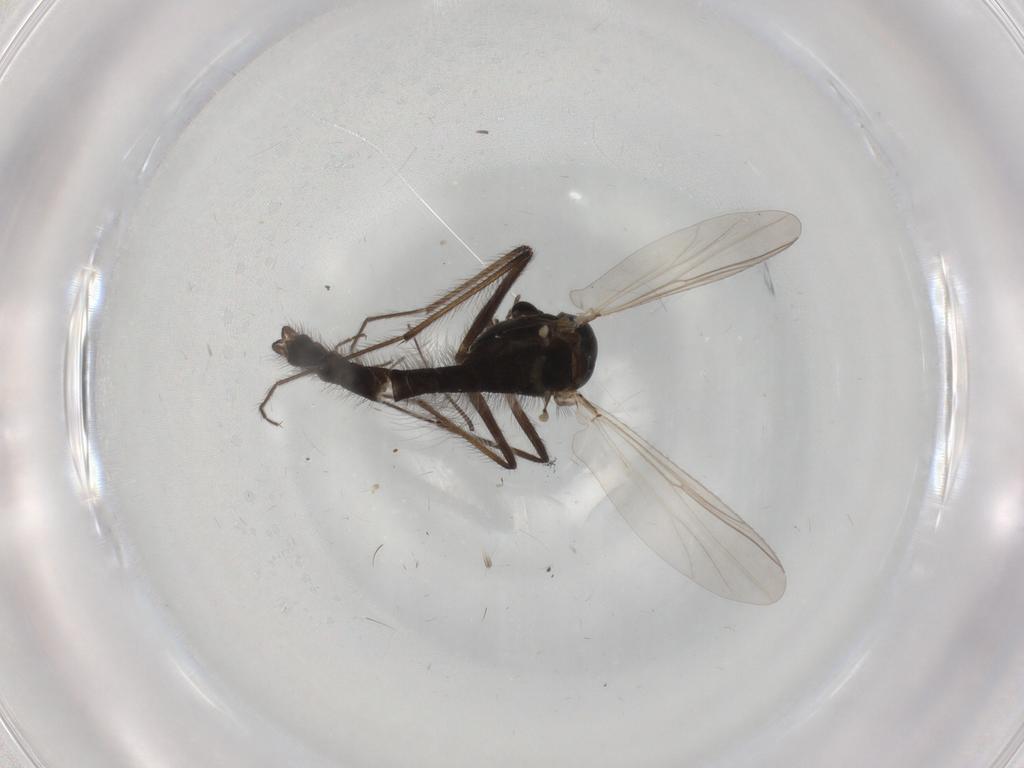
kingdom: Animalia
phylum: Arthropoda
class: Insecta
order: Diptera
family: Chironomidae
